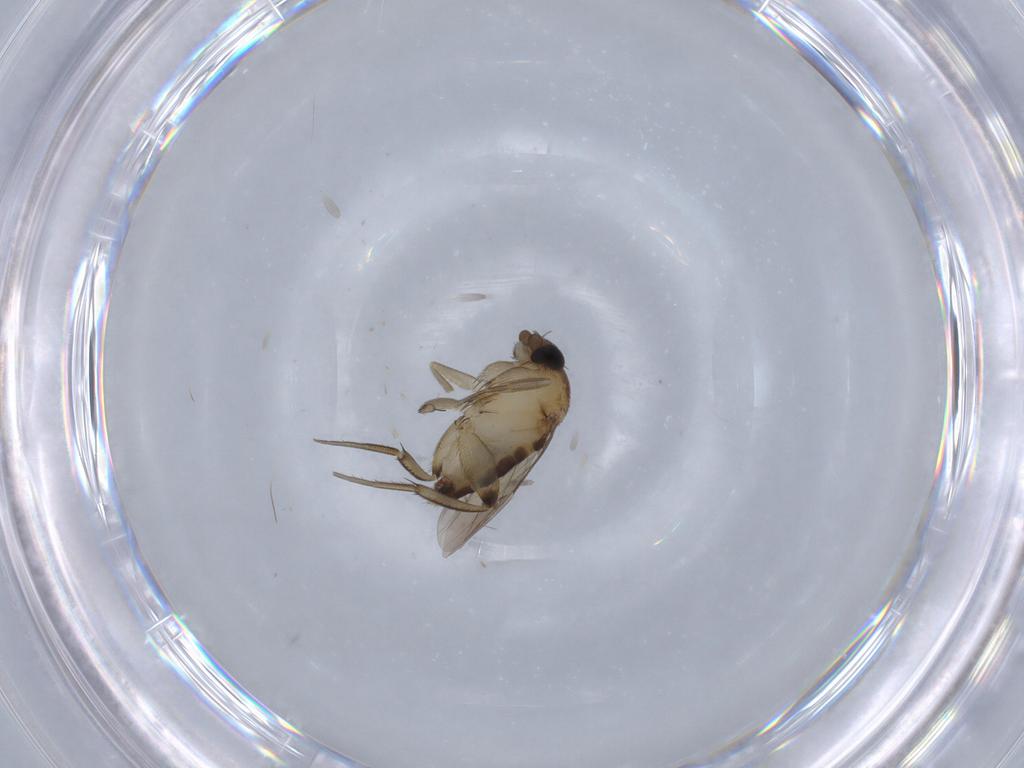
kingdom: Animalia
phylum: Arthropoda
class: Insecta
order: Diptera
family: Phoridae
